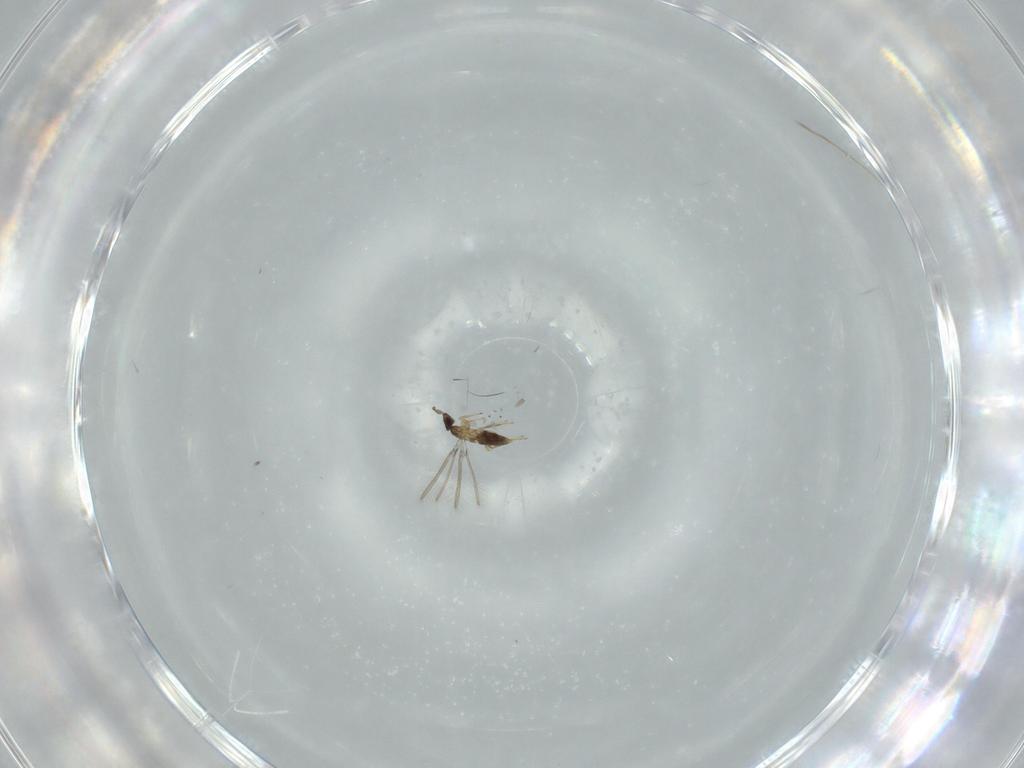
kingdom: Animalia
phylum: Arthropoda
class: Insecta
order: Hymenoptera
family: Mymaridae
